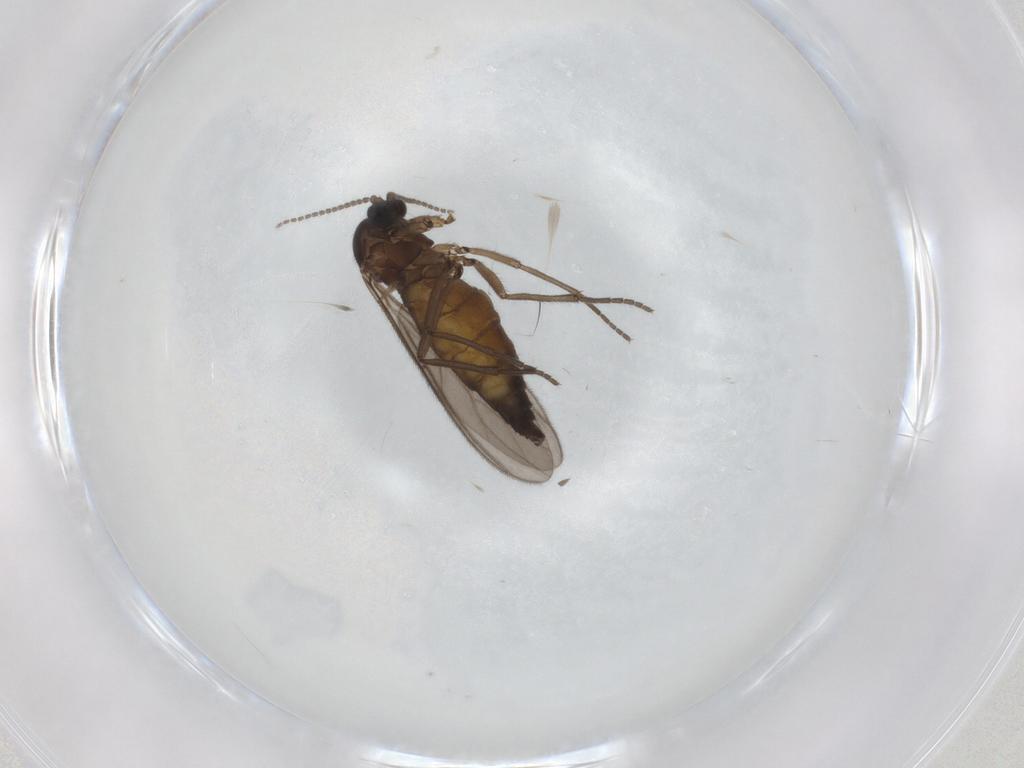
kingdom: Animalia
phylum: Arthropoda
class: Insecta
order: Diptera
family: Sciaridae
